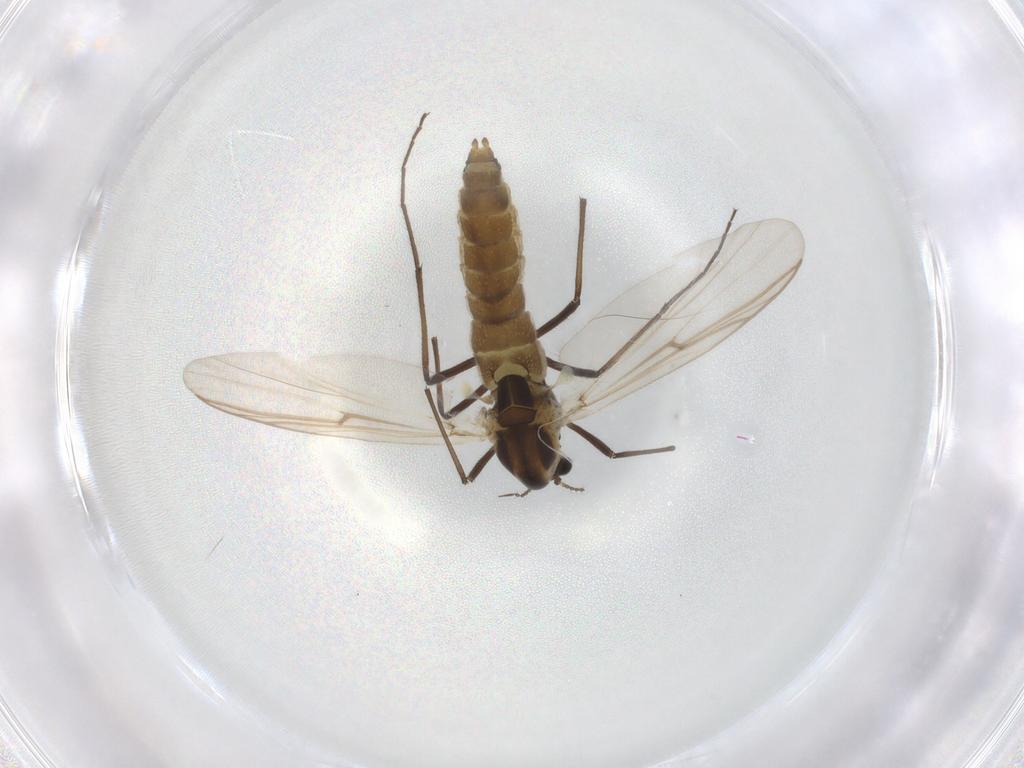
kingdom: Animalia
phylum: Arthropoda
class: Insecta
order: Diptera
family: Chironomidae
